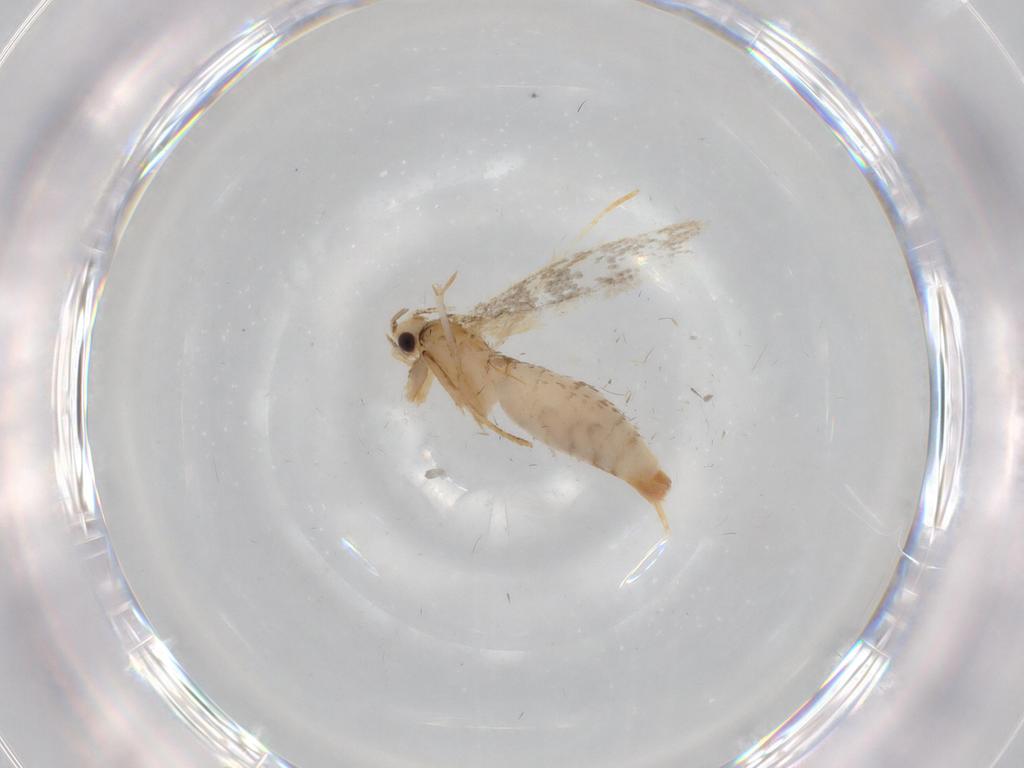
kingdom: Animalia
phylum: Arthropoda
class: Insecta
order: Lepidoptera
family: Tineidae
